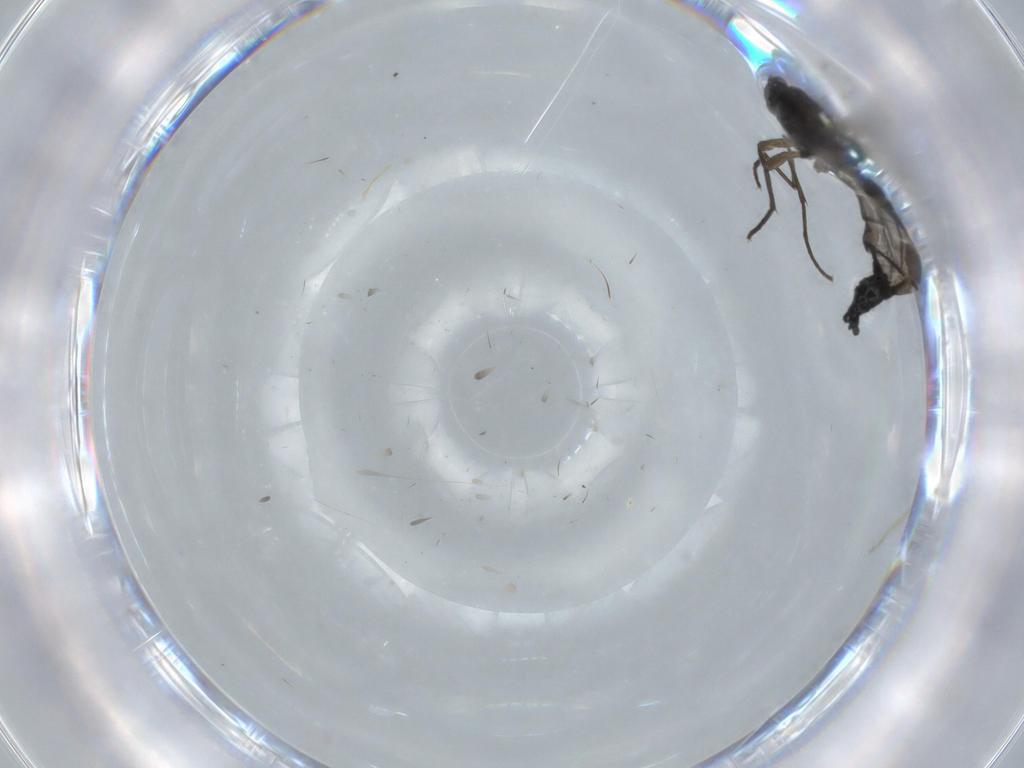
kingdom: Animalia
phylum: Arthropoda
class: Insecta
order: Diptera
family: Sciaridae
